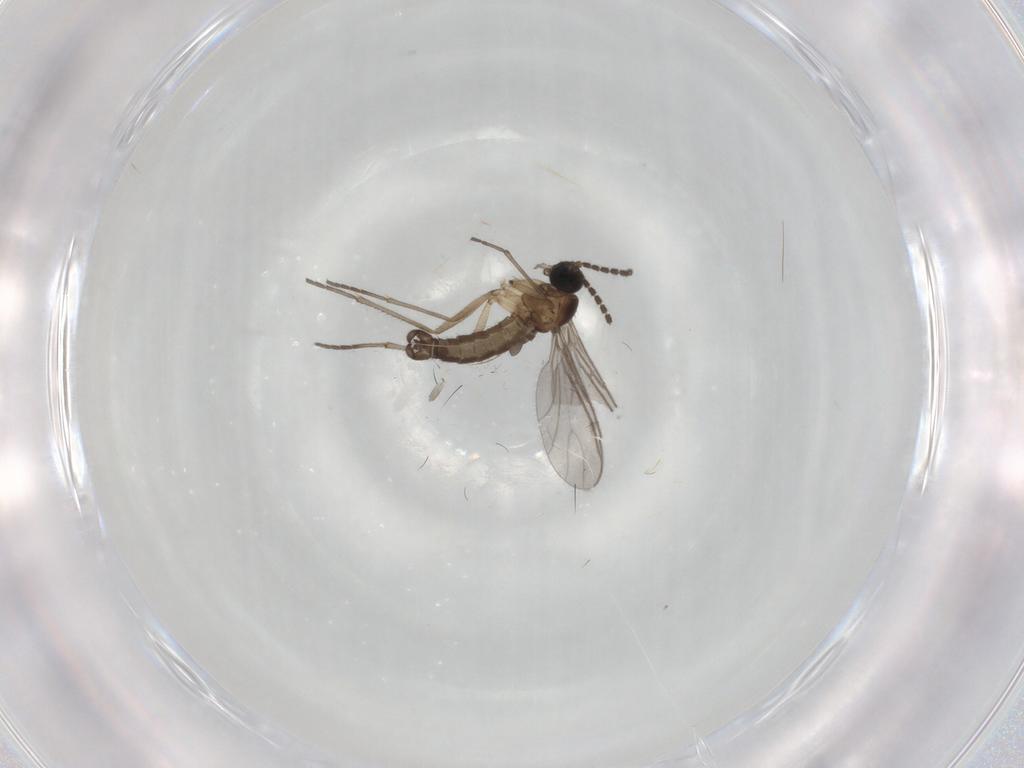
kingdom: Animalia
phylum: Arthropoda
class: Insecta
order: Diptera
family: Sciaridae
